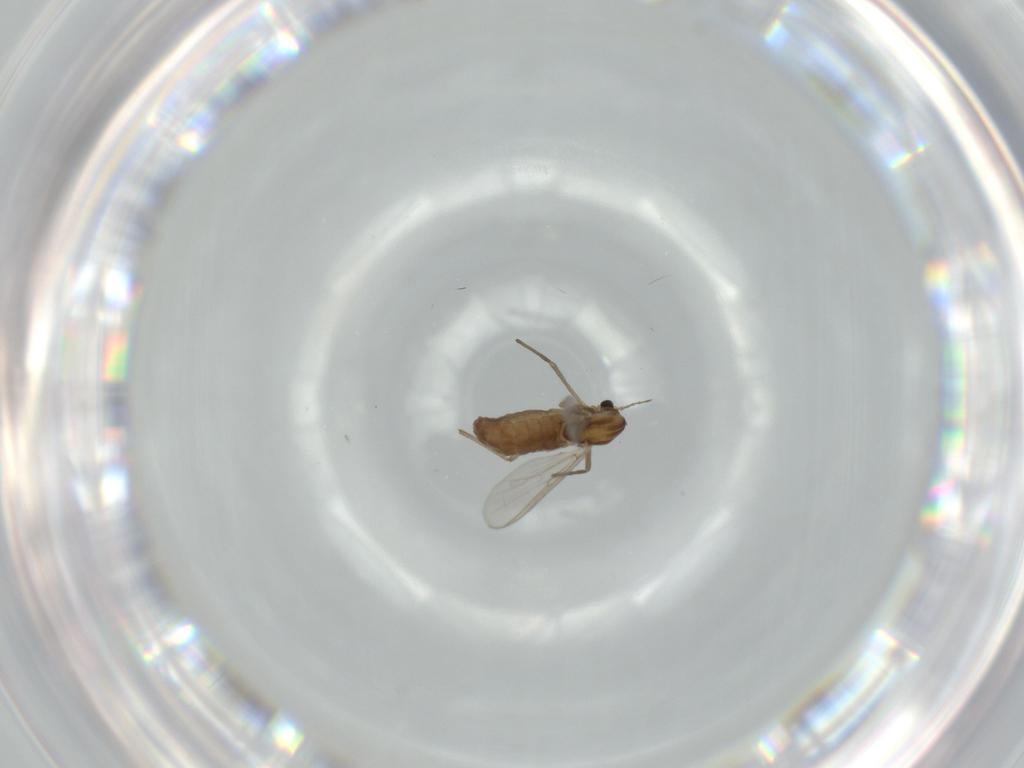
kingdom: Animalia
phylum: Arthropoda
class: Insecta
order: Diptera
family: Chironomidae
